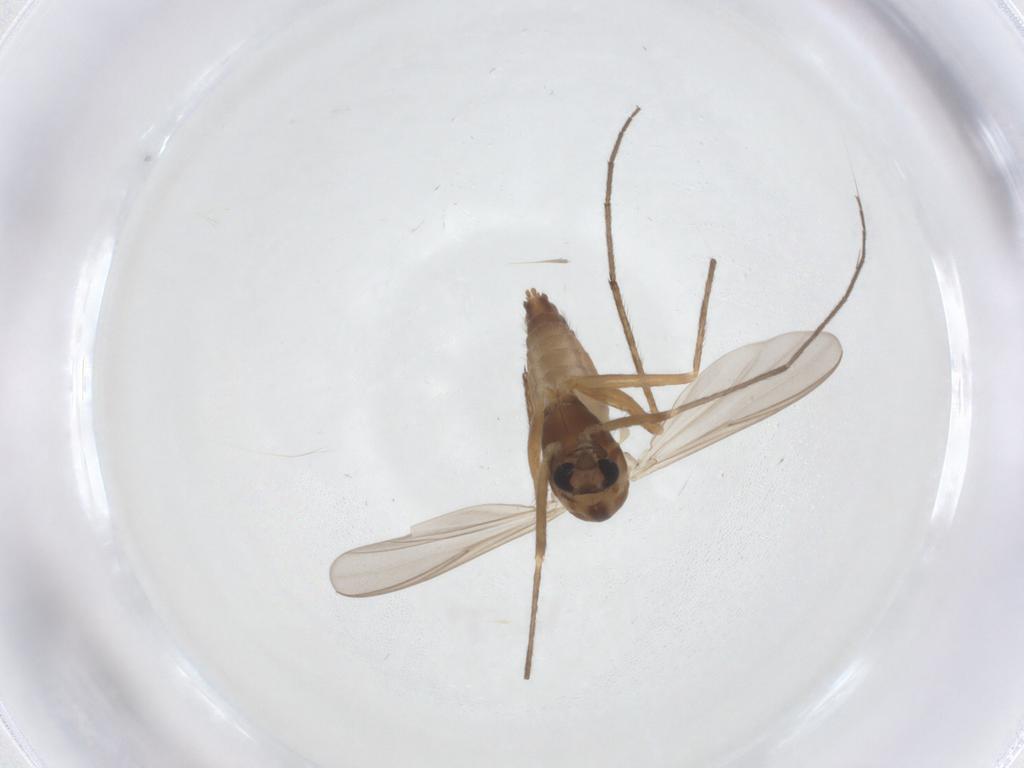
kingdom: Animalia
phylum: Arthropoda
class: Insecta
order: Diptera
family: Chironomidae
